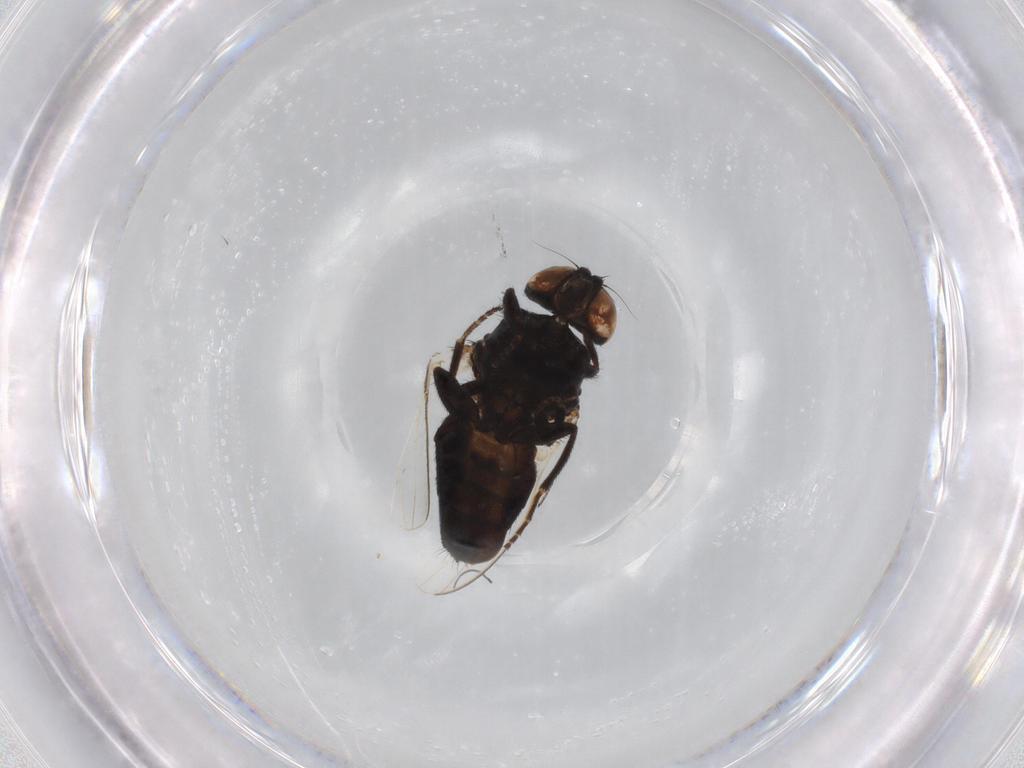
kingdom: Animalia
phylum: Arthropoda
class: Insecta
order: Diptera
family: Milichiidae
